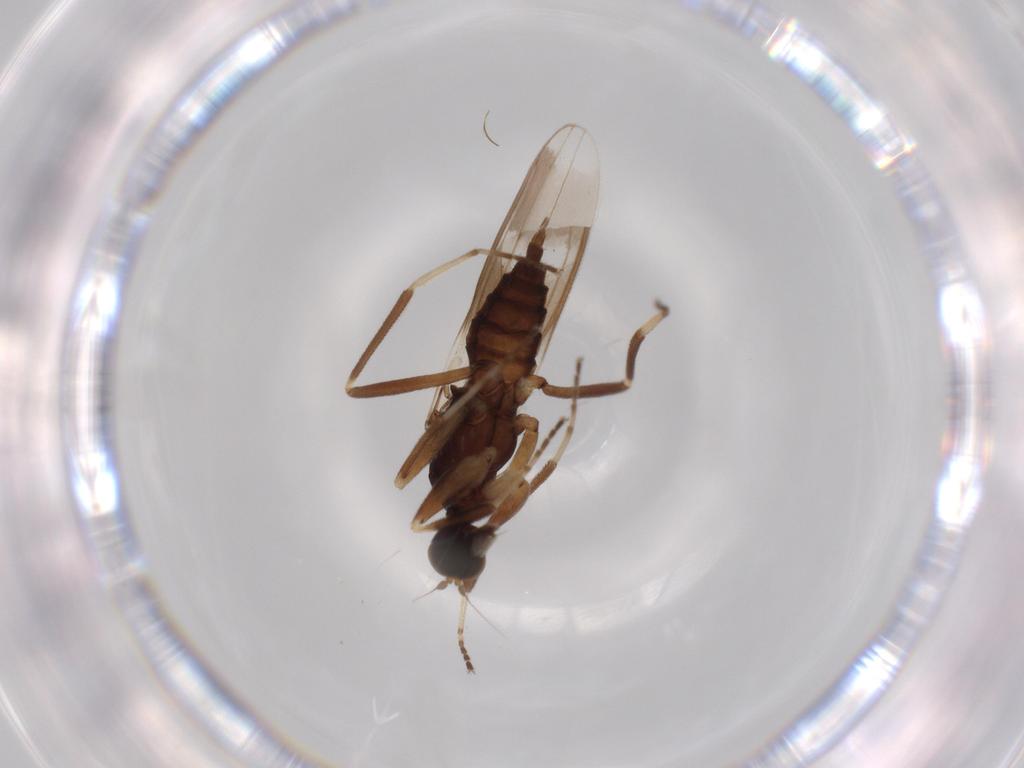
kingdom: Animalia
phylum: Arthropoda
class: Insecta
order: Diptera
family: Hybotidae
